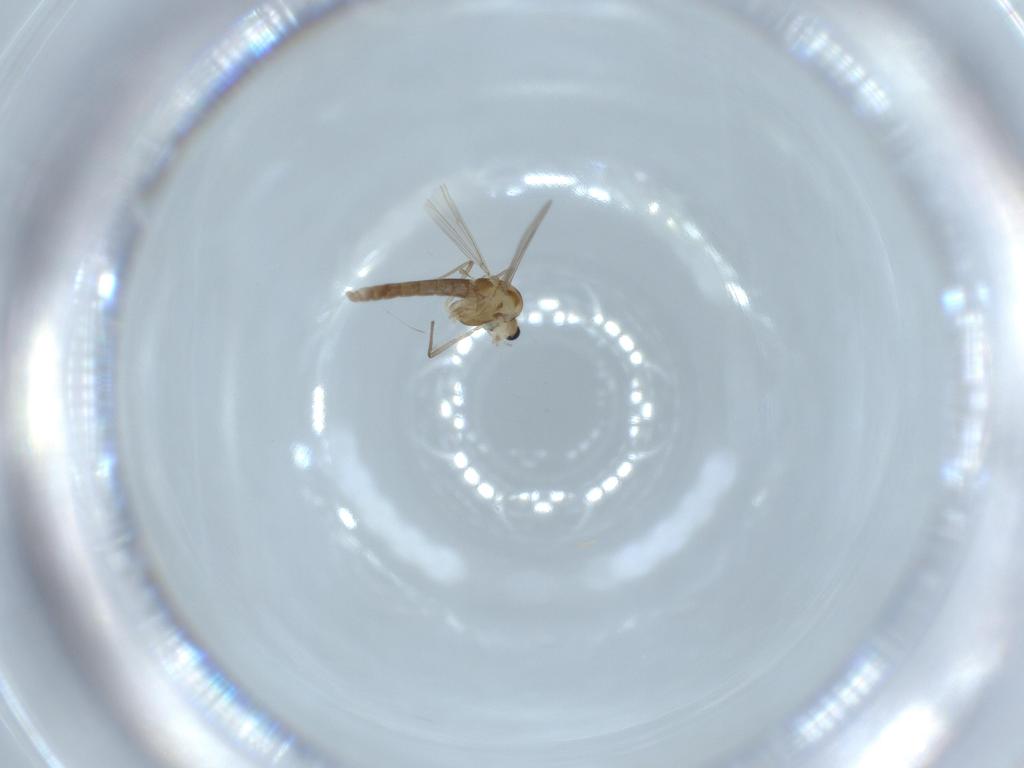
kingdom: Animalia
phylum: Arthropoda
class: Insecta
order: Diptera
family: Chironomidae
